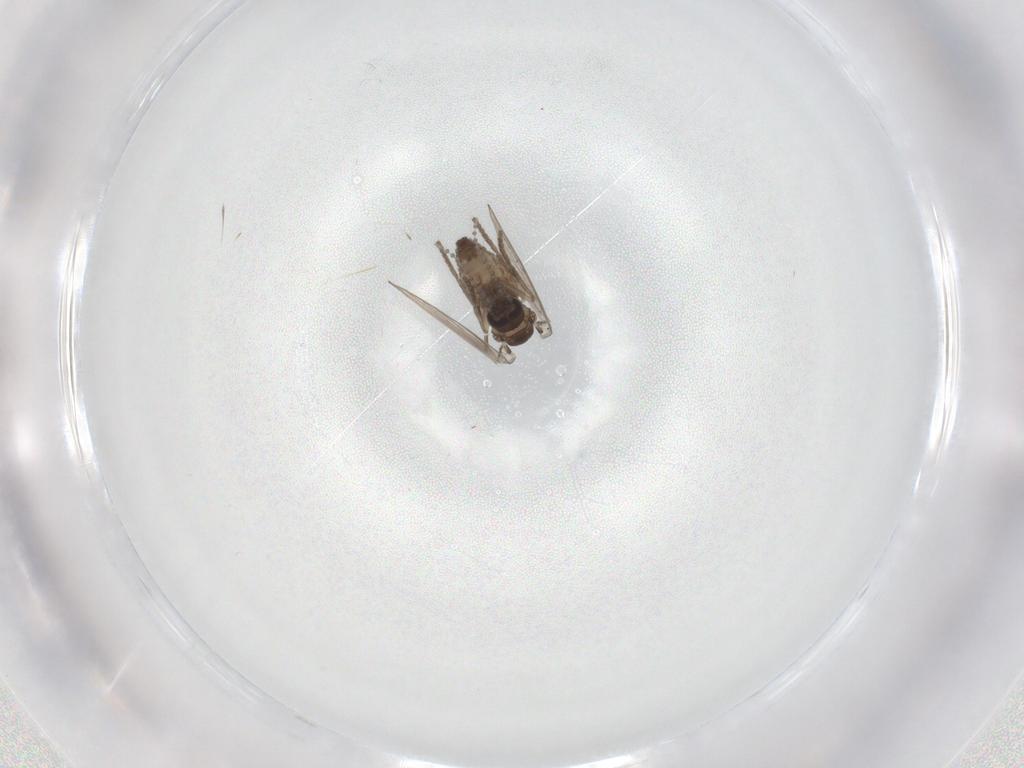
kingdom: Animalia
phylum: Arthropoda
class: Insecta
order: Diptera
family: Psychodidae
